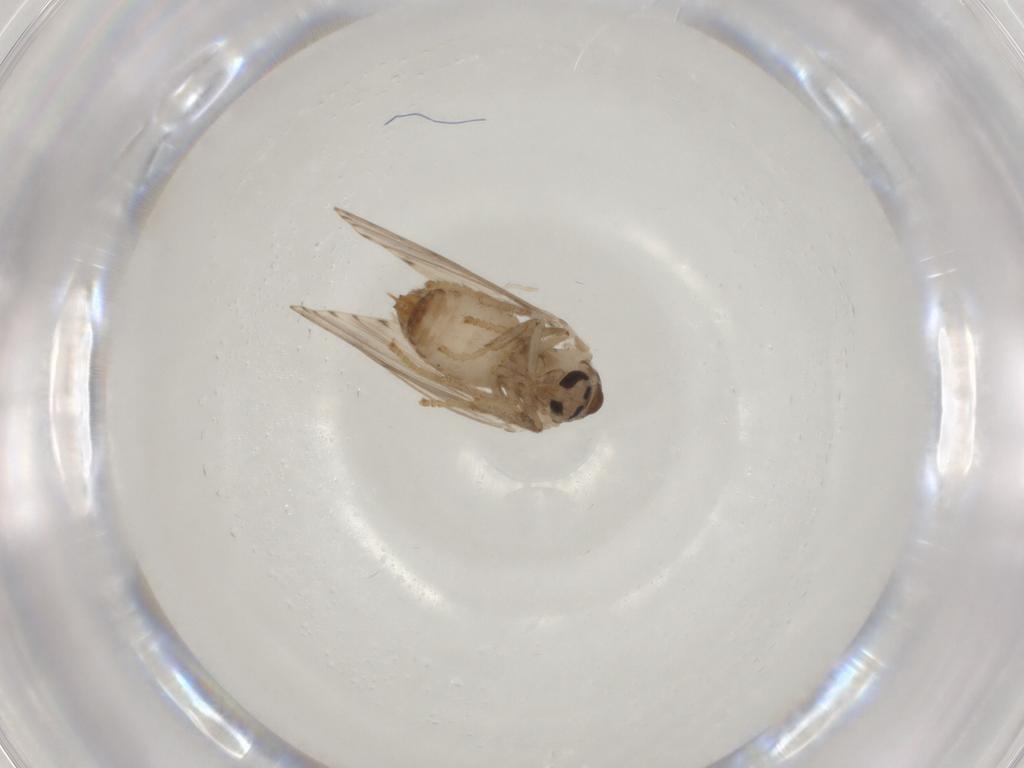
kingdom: Animalia
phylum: Arthropoda
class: Insecta
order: Diptera
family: Psychodidae
